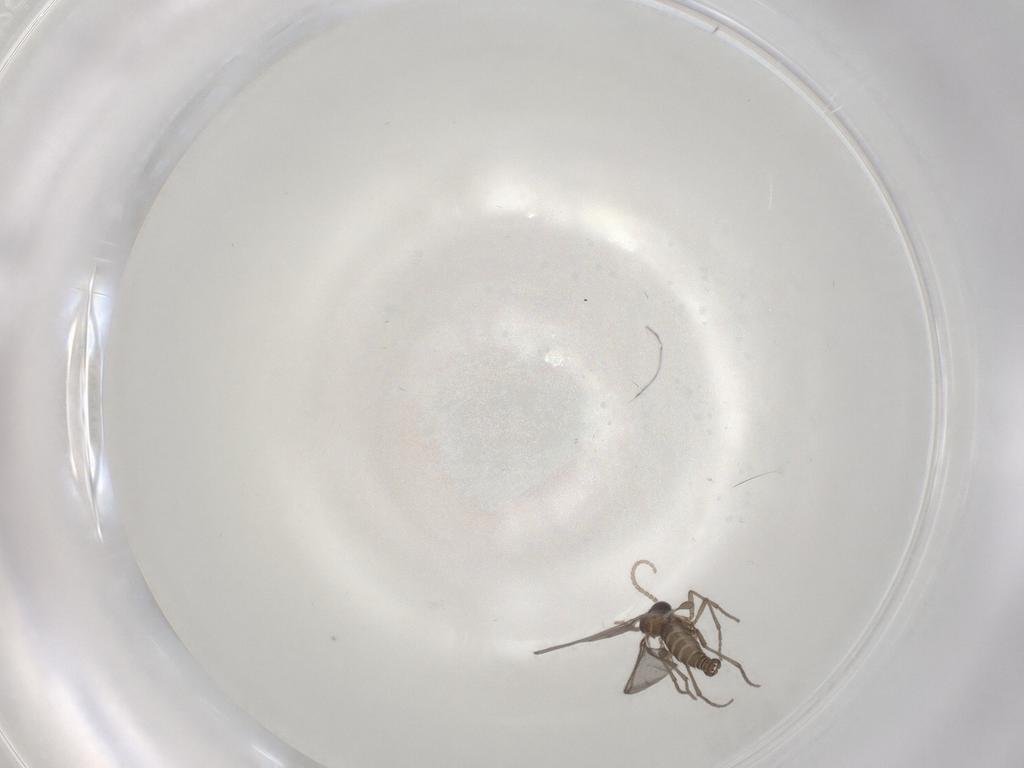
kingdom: Animalia
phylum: Arthropoda
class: Insecta
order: Diptera
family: Sciaridae
